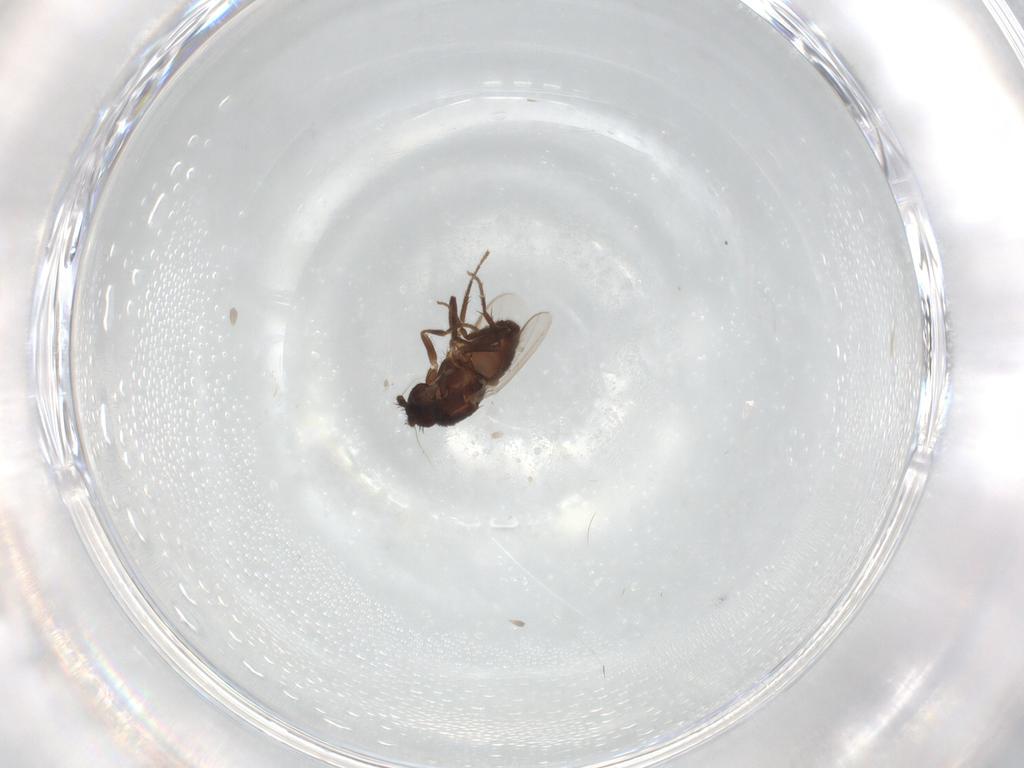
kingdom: Animalia
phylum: Arthropoda
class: Insecta
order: Diptera
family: Sphaeroceridae
